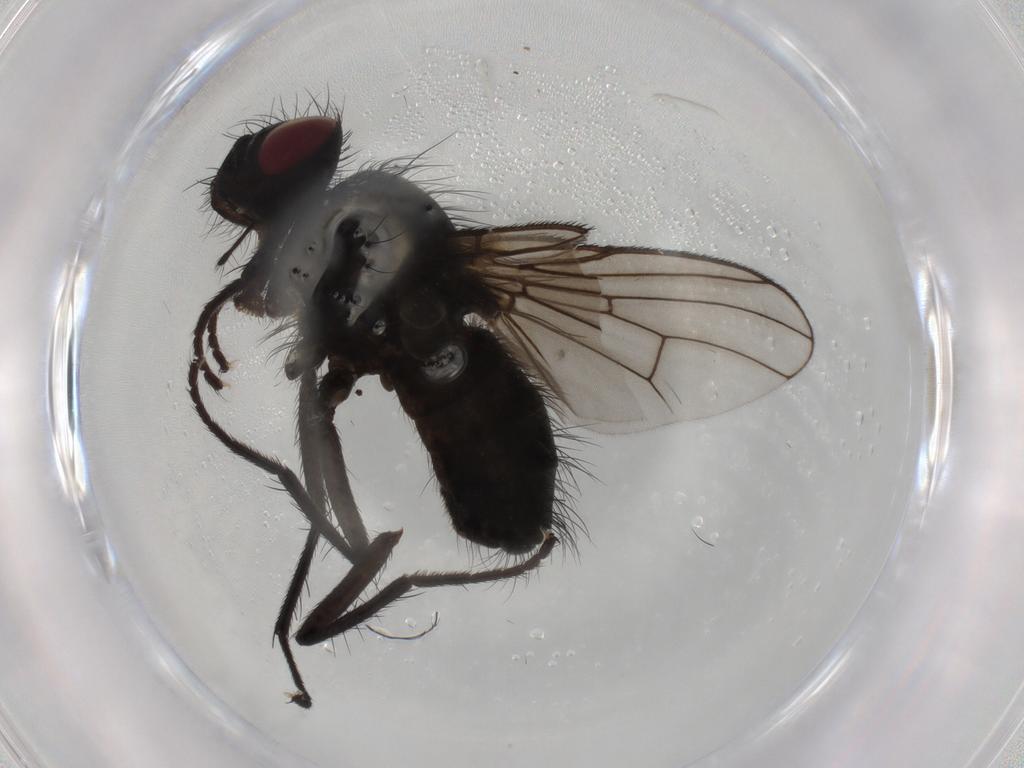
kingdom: Animalia
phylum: Arthropoda
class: Insecta
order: Diptera
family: Muscidae
